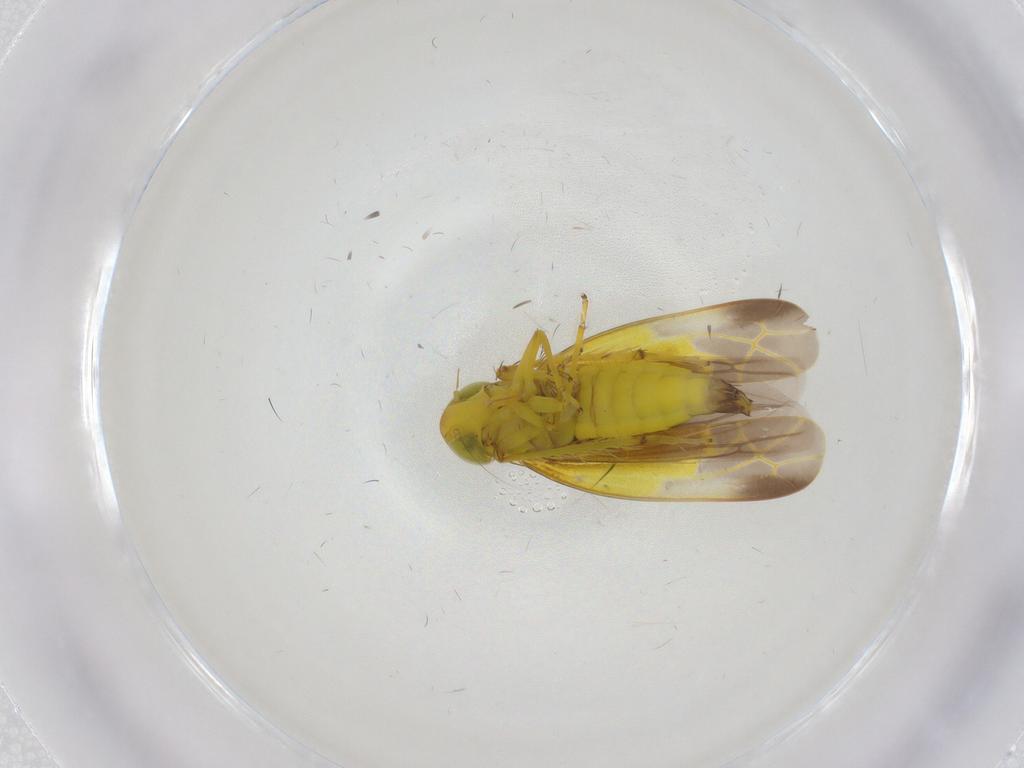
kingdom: Animalia
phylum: Arthropoda
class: Insecta
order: Hemiptera
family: Cicadellidae
